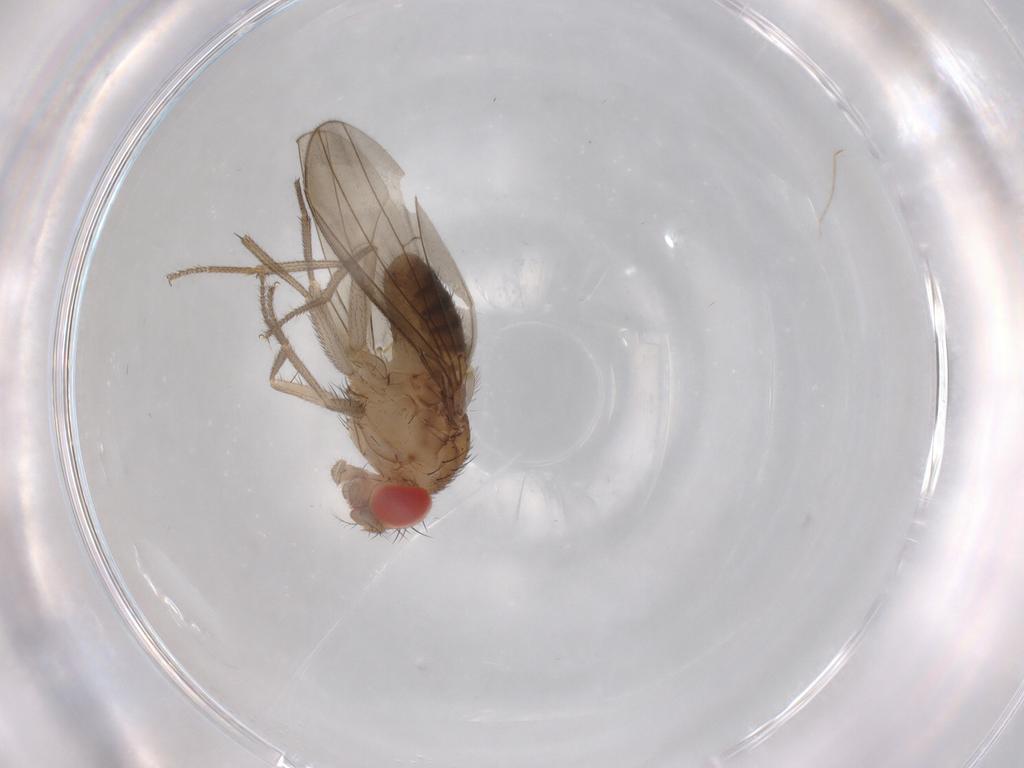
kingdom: Animalia
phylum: Arthropoda
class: Insecta
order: Diptera
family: Drosophilidae
